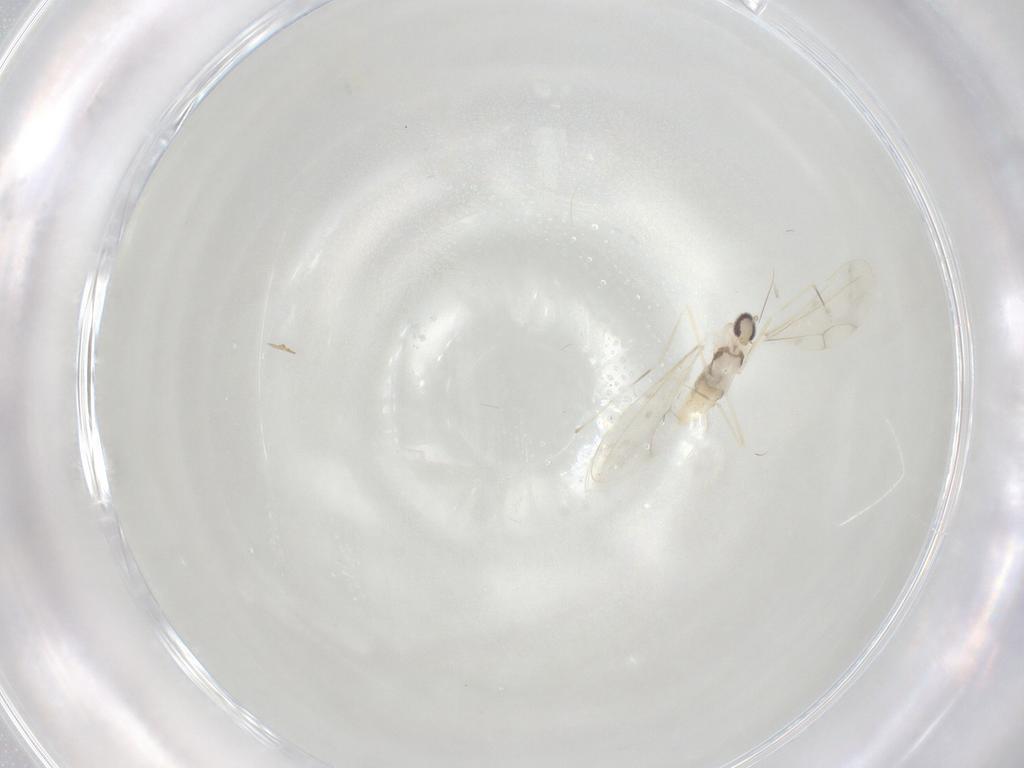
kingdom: Animalia
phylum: Arthropoda
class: Insecta
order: Diptera
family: Cecidomyiidae
